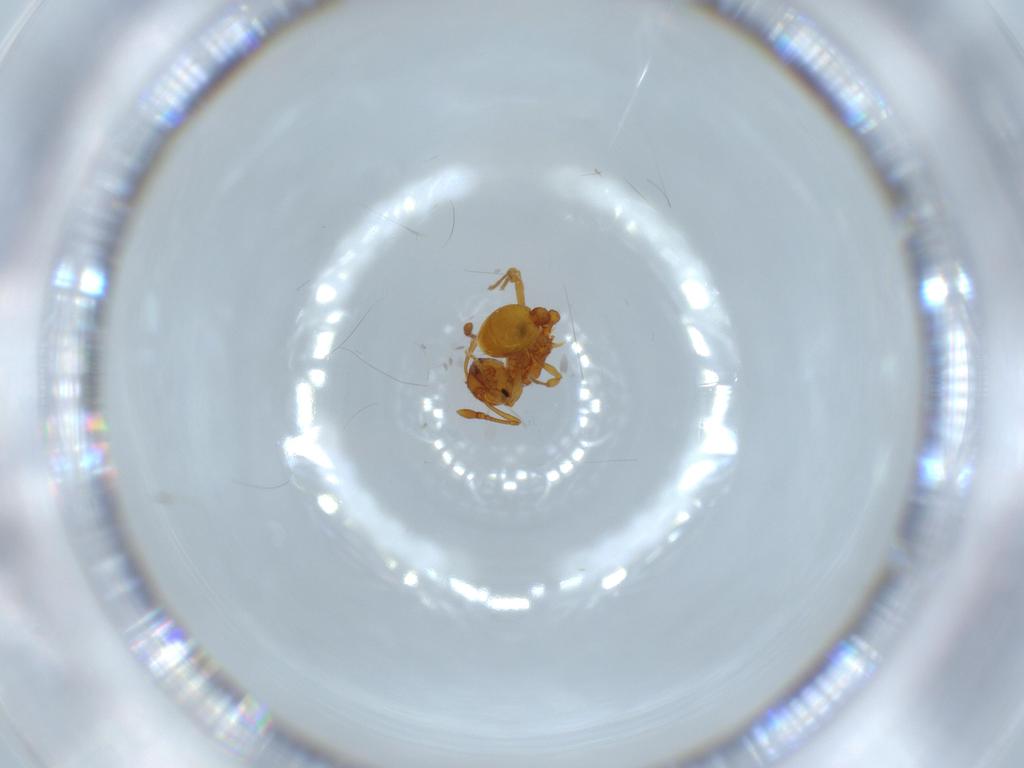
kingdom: Animalia
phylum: Arthropoda
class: Insecta
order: Hymenoptera
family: Formicidae
